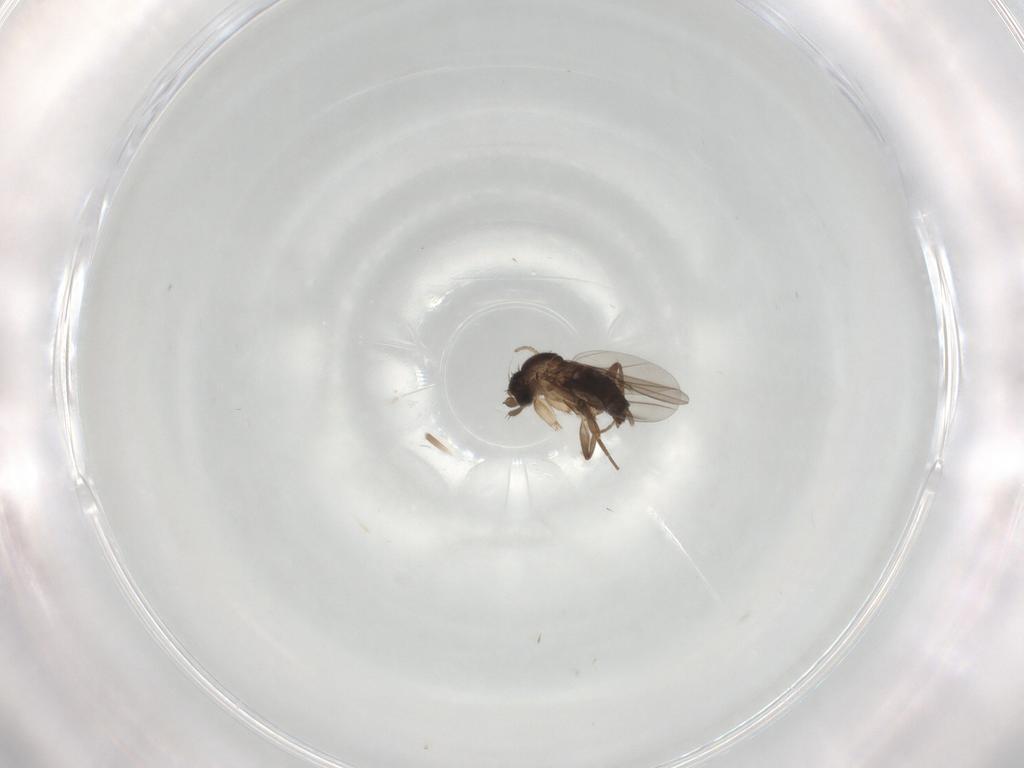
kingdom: Animalia
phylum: Arthropoda
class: Insecta
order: Diptera
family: Phoridae
